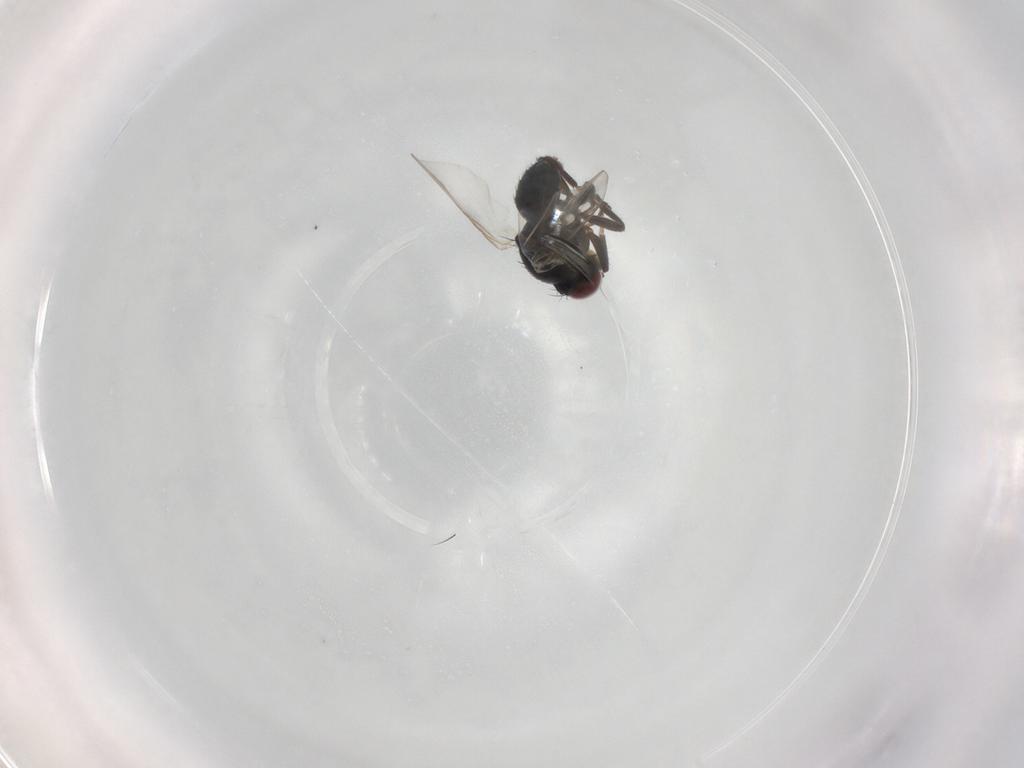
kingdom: Animalia
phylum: Arthropoda
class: Insecta
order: Diptera
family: Agromyzidae
